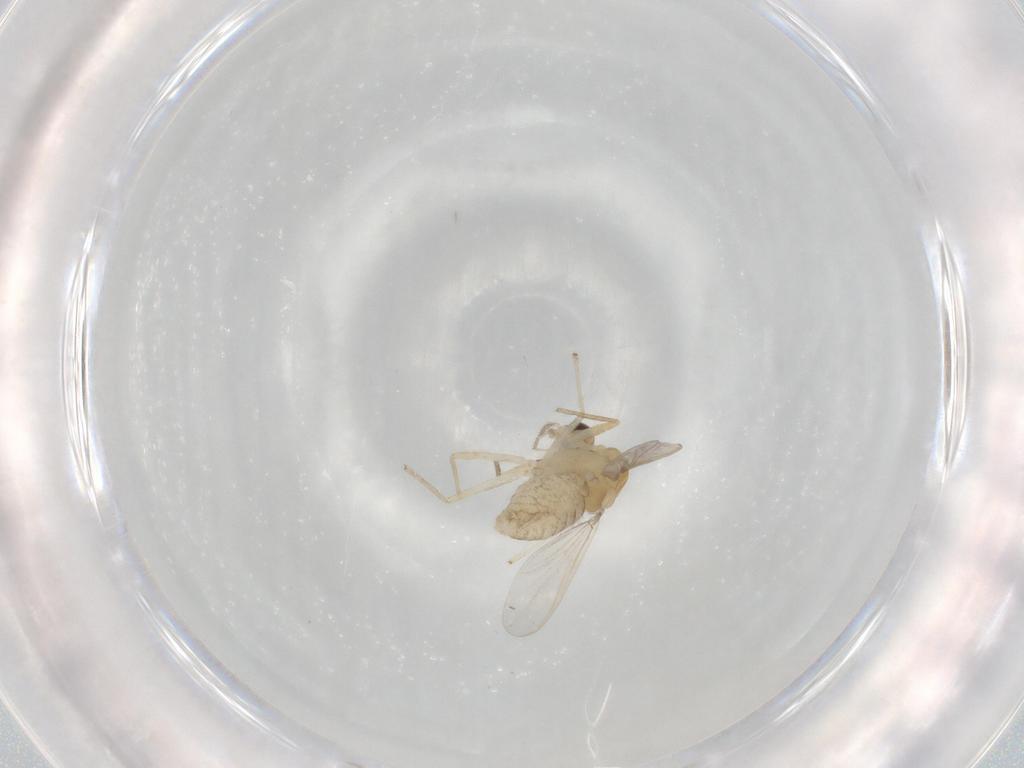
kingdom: Animalia
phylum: Arthropoda
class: Insecta
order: Diptera
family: Chironomidae
